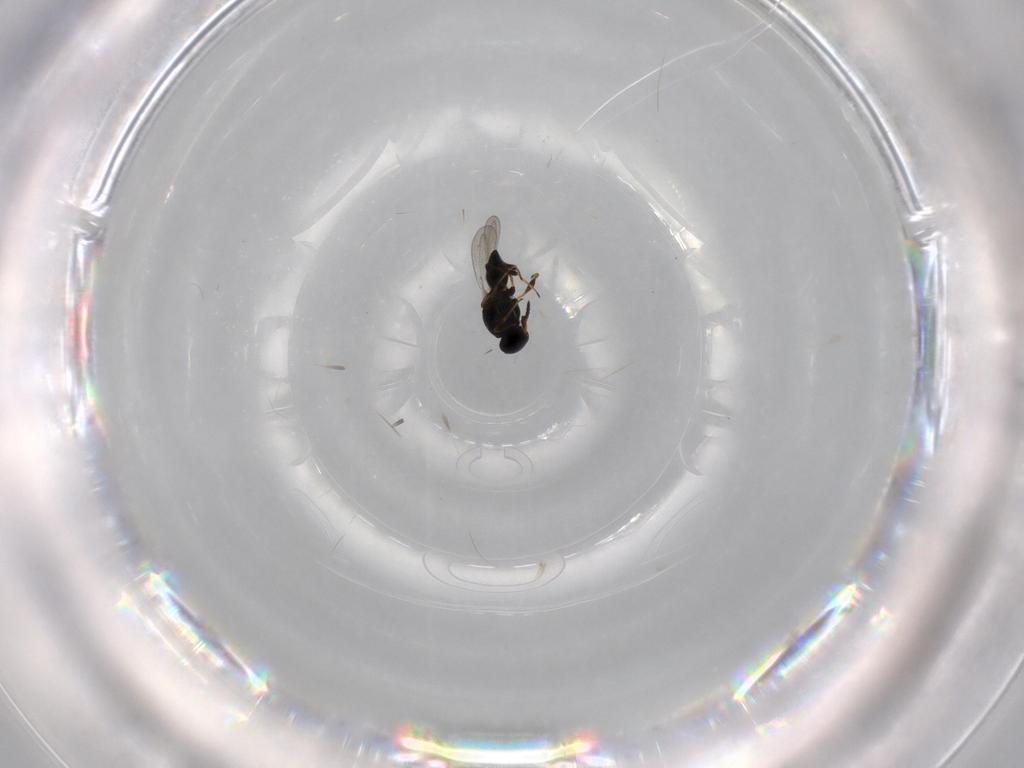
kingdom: Animalia
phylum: Arthropoda
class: Insecta
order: Hymenoptera
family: Platygastridae
